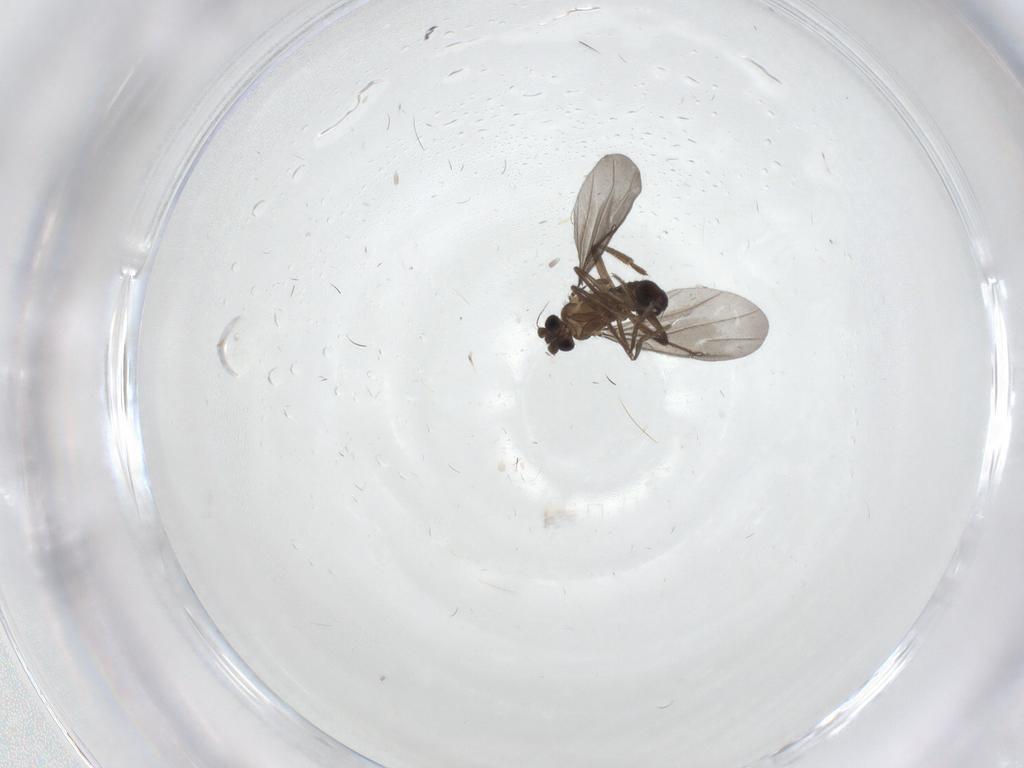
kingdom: Animalia
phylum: Arthropoda
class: Insecta
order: Diptera
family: Phoridae
